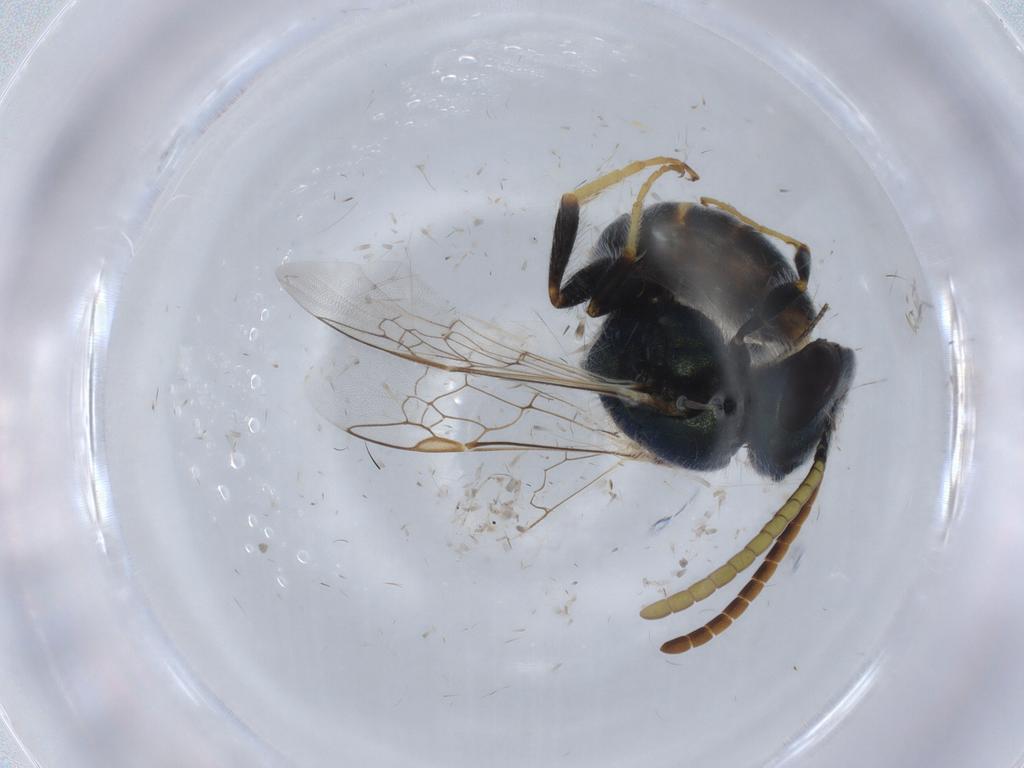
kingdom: Animalia
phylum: Arthropoda
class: Insecta
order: Hymenoptera
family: Halictidae
